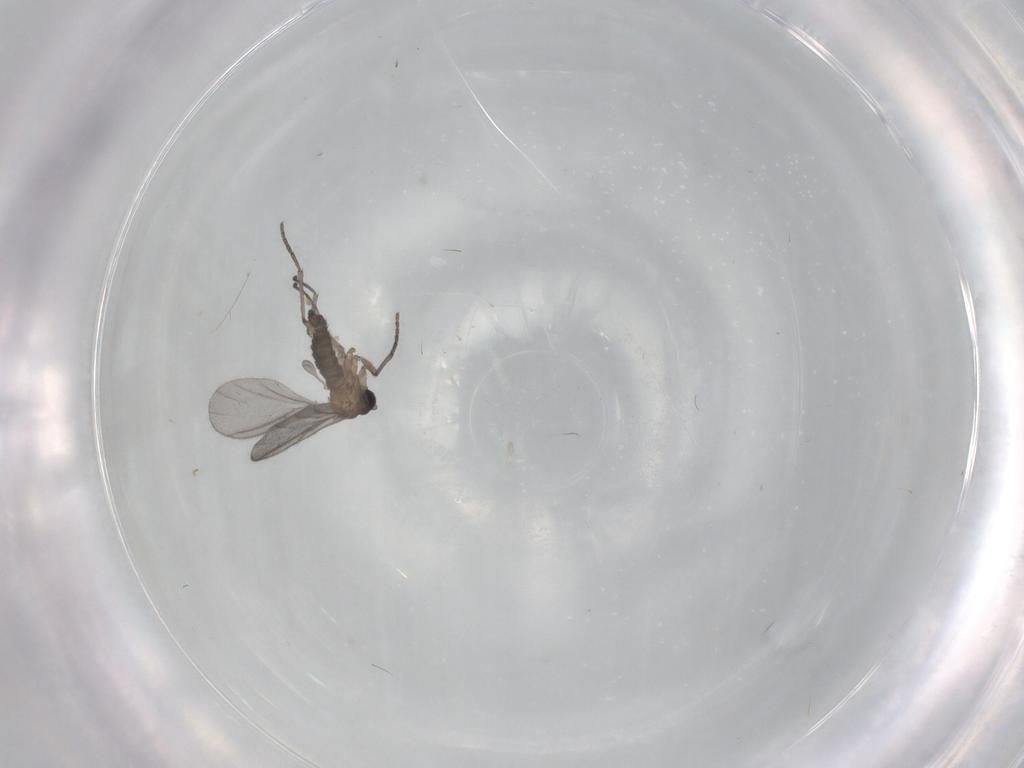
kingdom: Animalia
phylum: Arthropoda
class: Insecta
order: Diptera
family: Sciaridae
